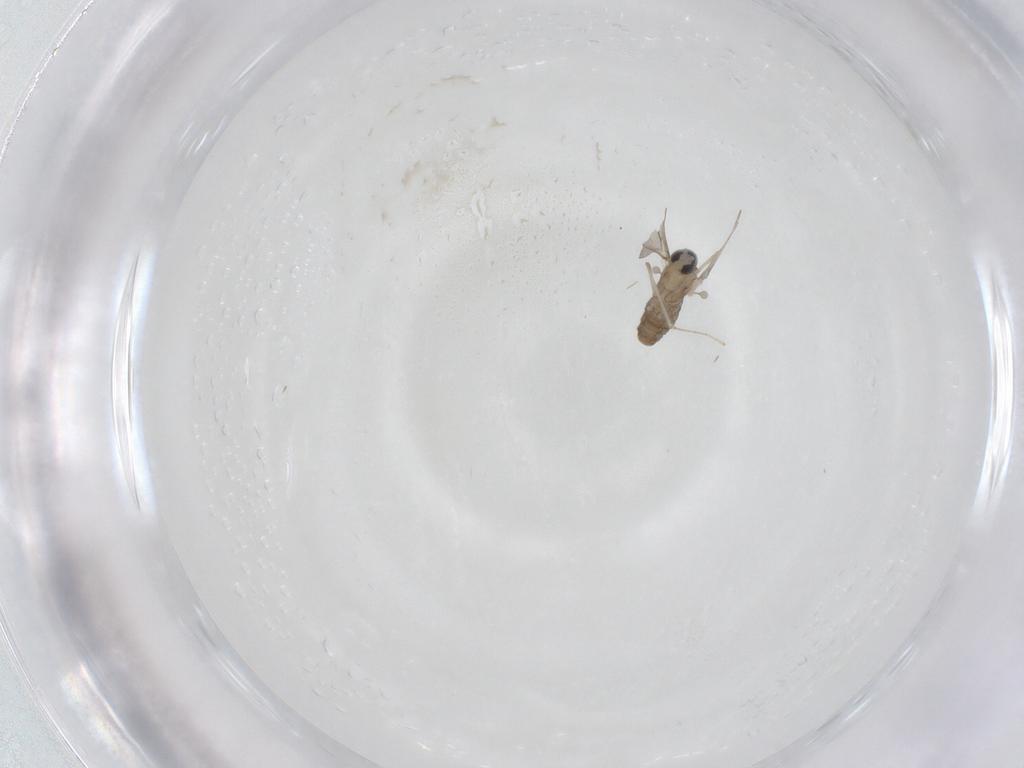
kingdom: Animalia
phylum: Arthropoda
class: Insecta
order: Diptera
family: Cecidomyiidae
